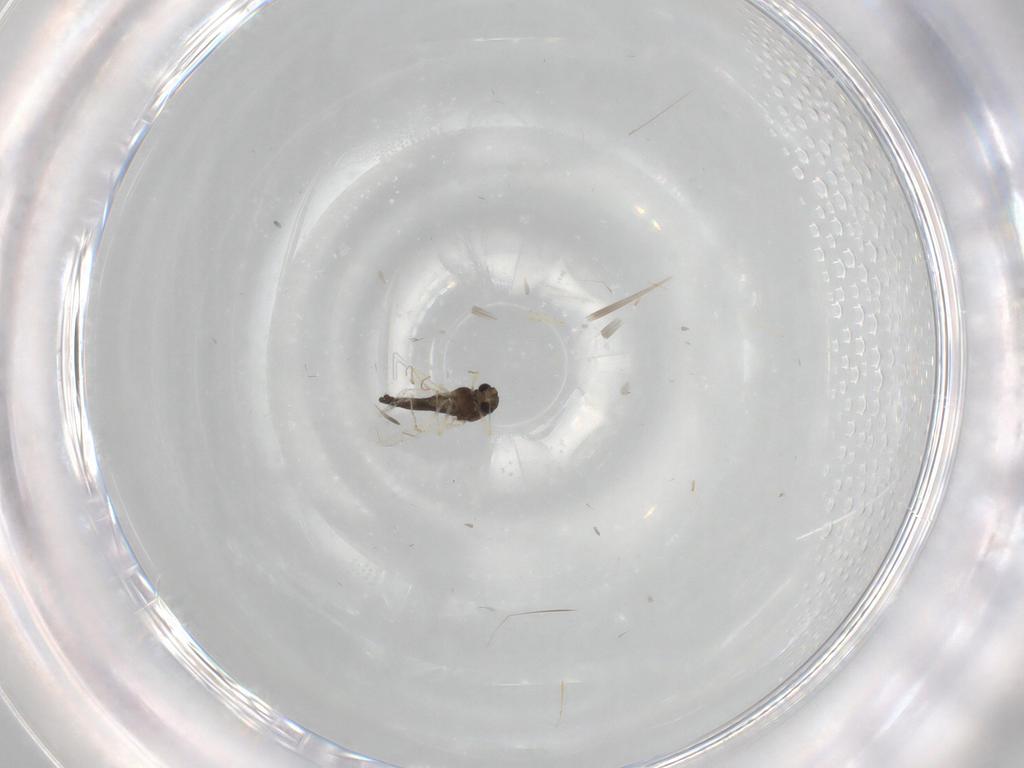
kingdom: Animalia
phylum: Arthropoda
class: Insecta
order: Diptera
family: Chironomidae
